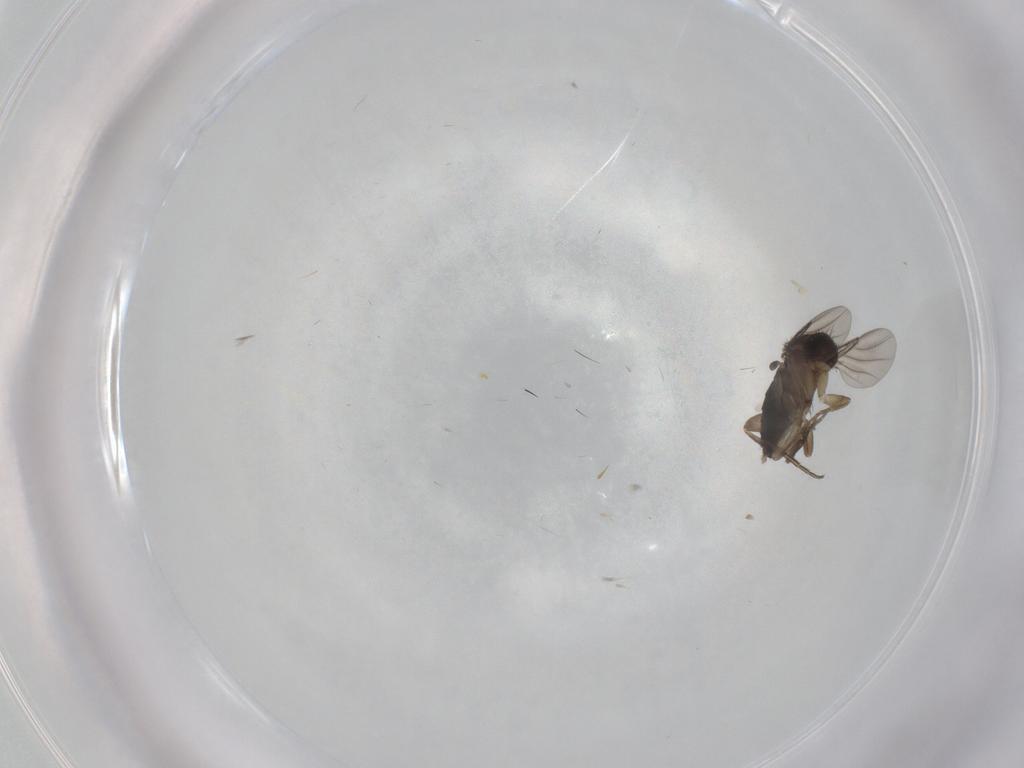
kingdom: Animalia
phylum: Arthropoda
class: Insecta
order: Diptera
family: Phoridae
